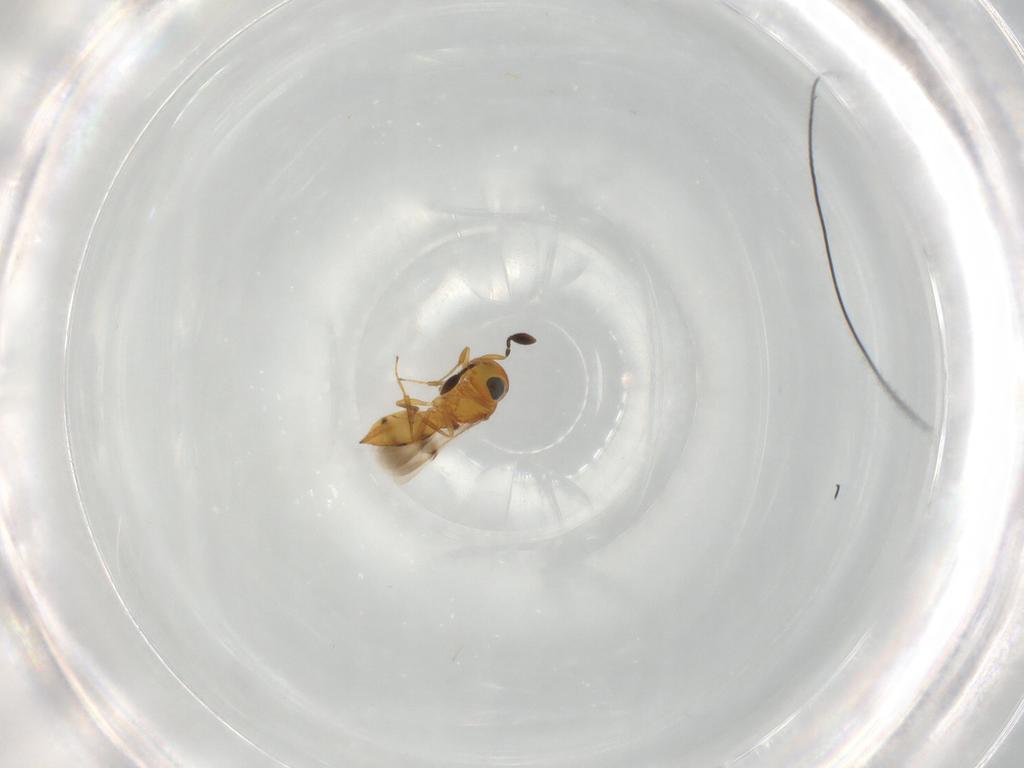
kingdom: Animalia
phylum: Arthropoda
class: Insecta
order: Hymenoptera
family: Scelionidae
